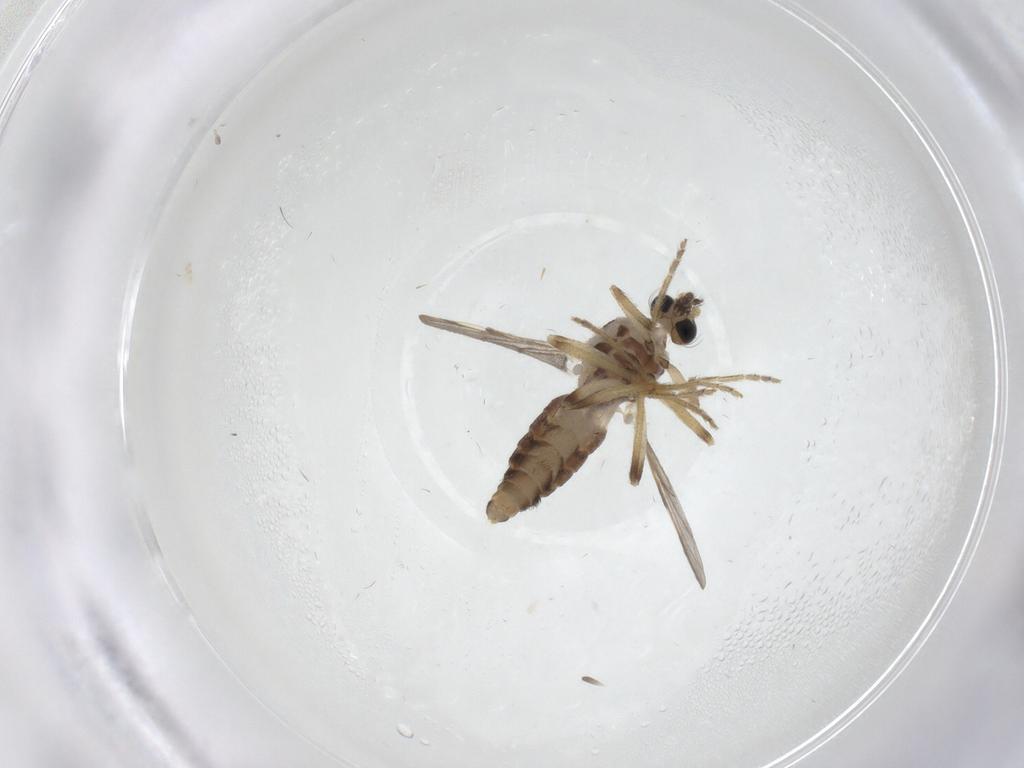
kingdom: Animalia
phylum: Arthropoda
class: Insecta
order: Diptera
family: Ceratopogonidae
